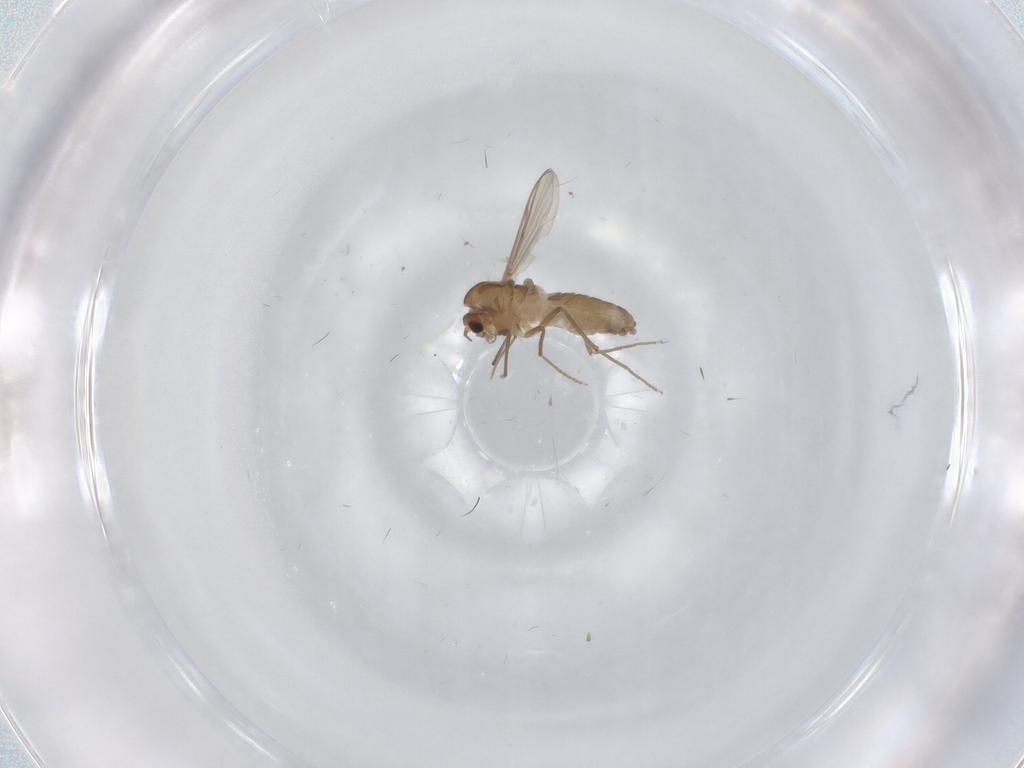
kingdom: Animalia
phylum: Arthropoda
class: Insecta
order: Diptera
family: Chironomidae
